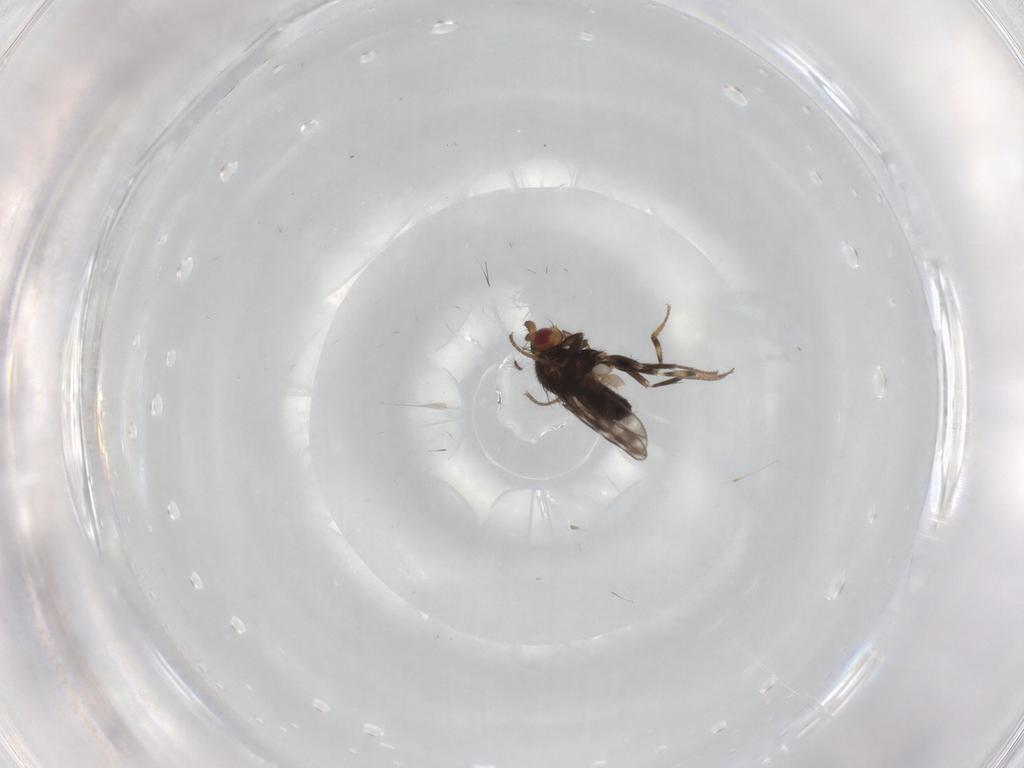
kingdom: Animalia
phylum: Arthropoda
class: Insecta
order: Diptera
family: Sphaeroceridae
